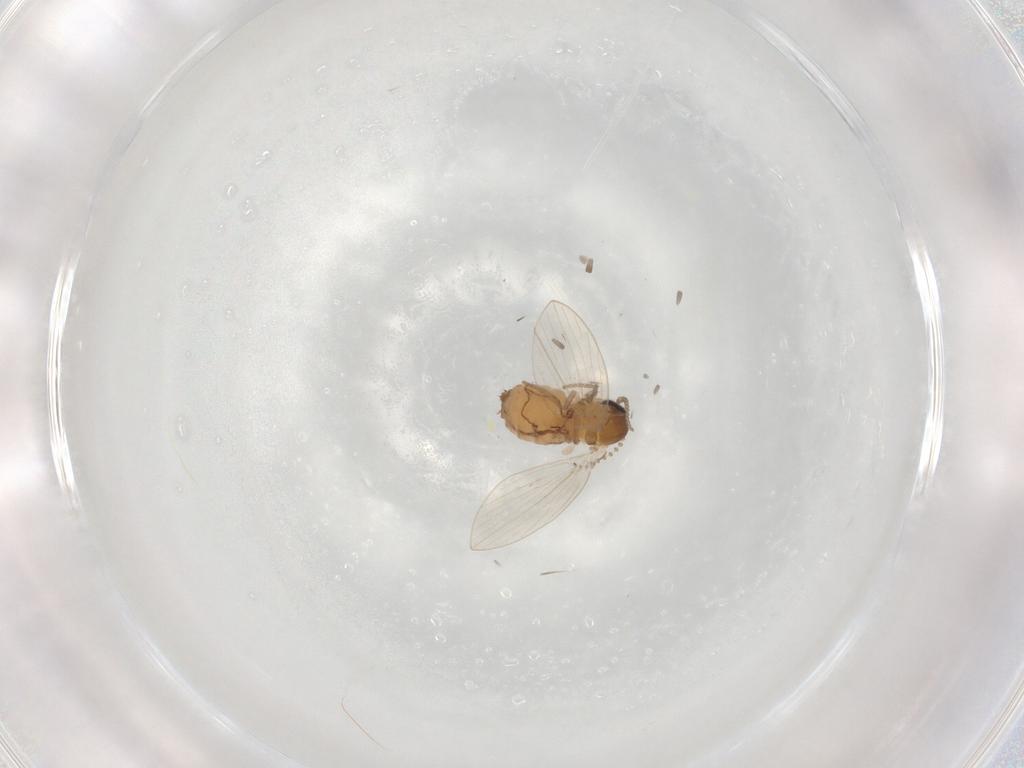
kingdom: Animalia
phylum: Arthropoda
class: Insecta
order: Diptera
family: Psychodidae
